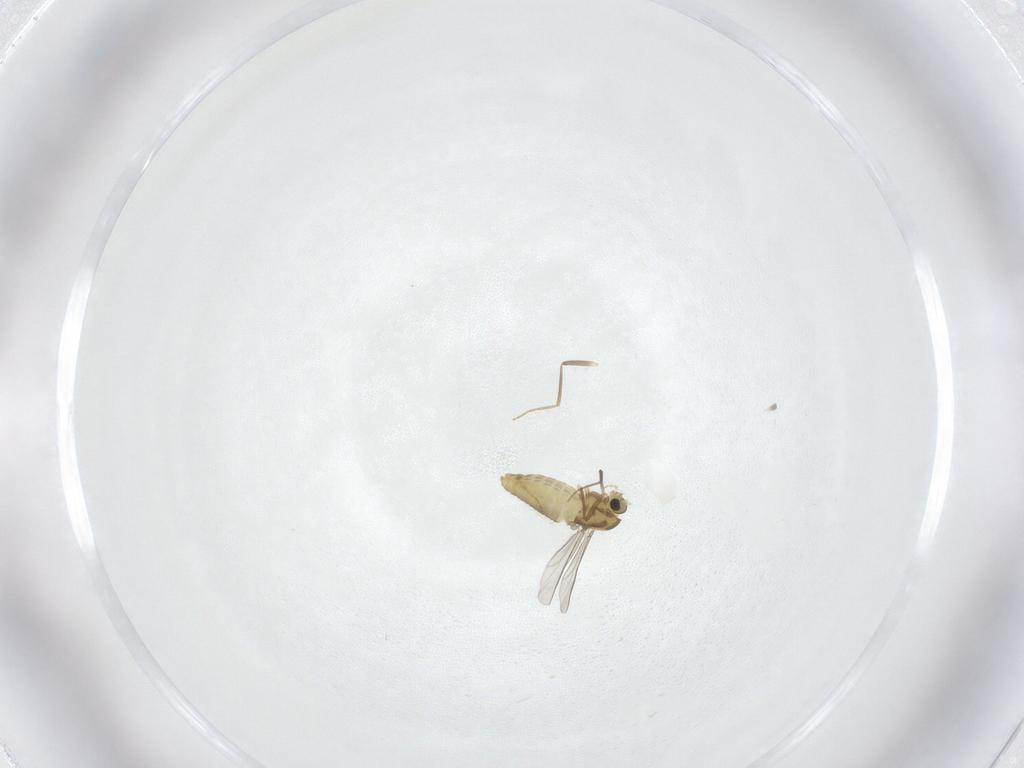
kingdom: Animalia
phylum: Arthropoda
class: Insecta
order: Diptera
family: Chironomidae
